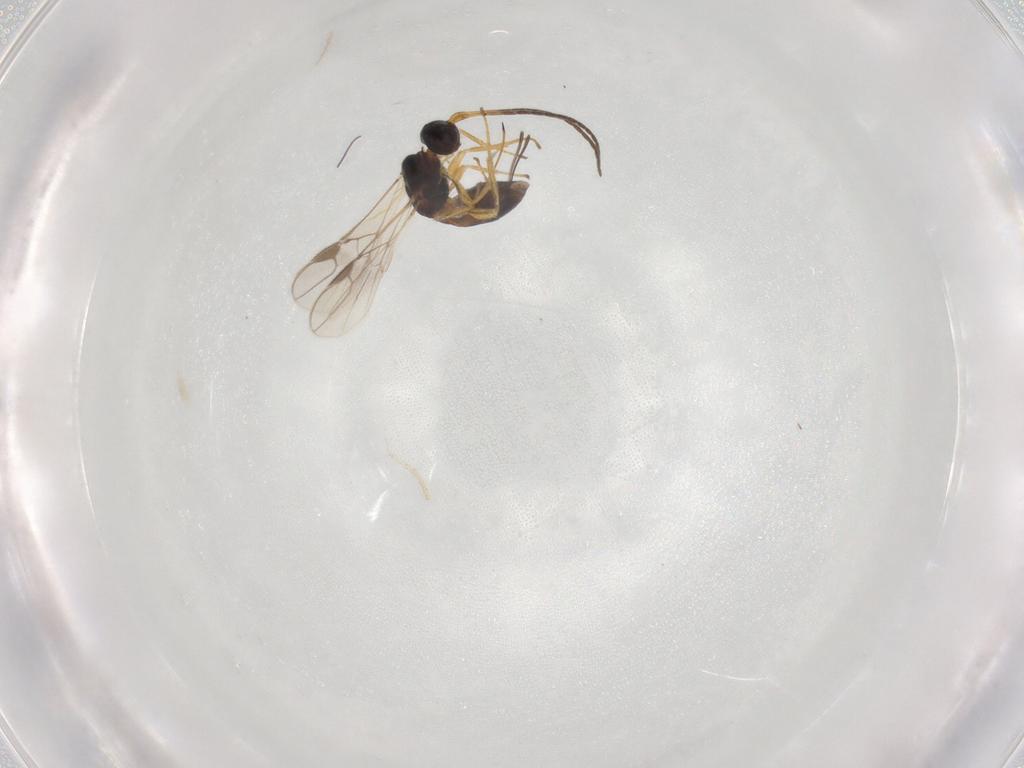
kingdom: Animalia
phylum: Arthropoda
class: Insecta
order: Hymenoptera
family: Braconidae
